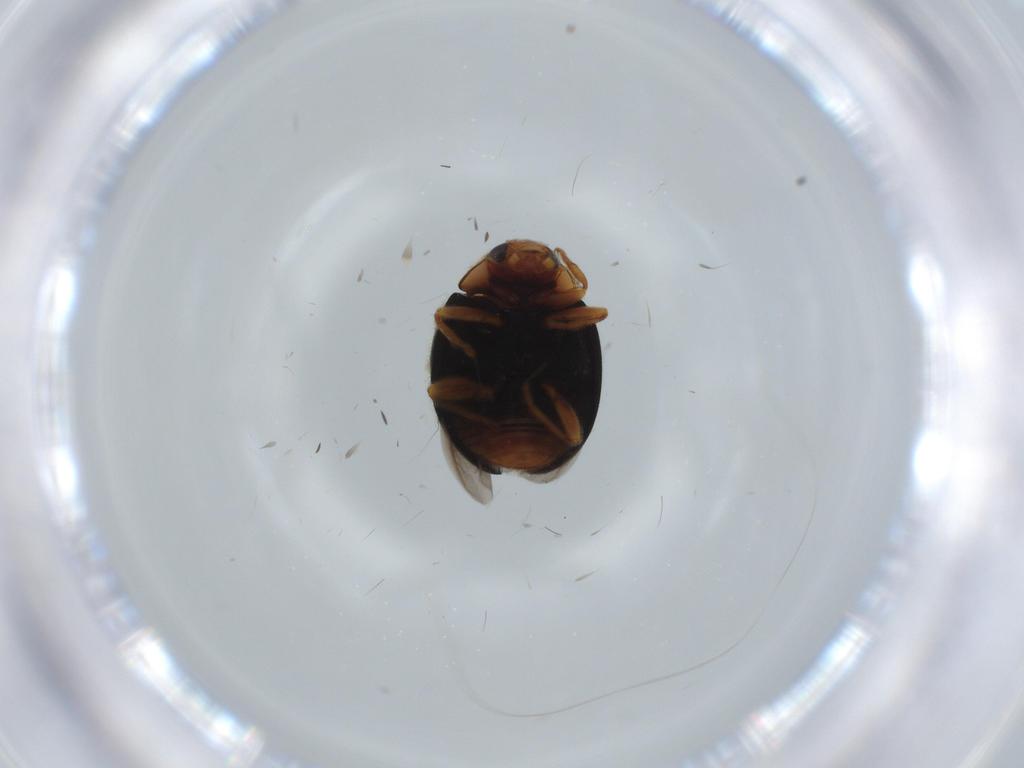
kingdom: Animalia
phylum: Arthropoda
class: Insecta
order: Coleoptera
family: Coccinellidae
